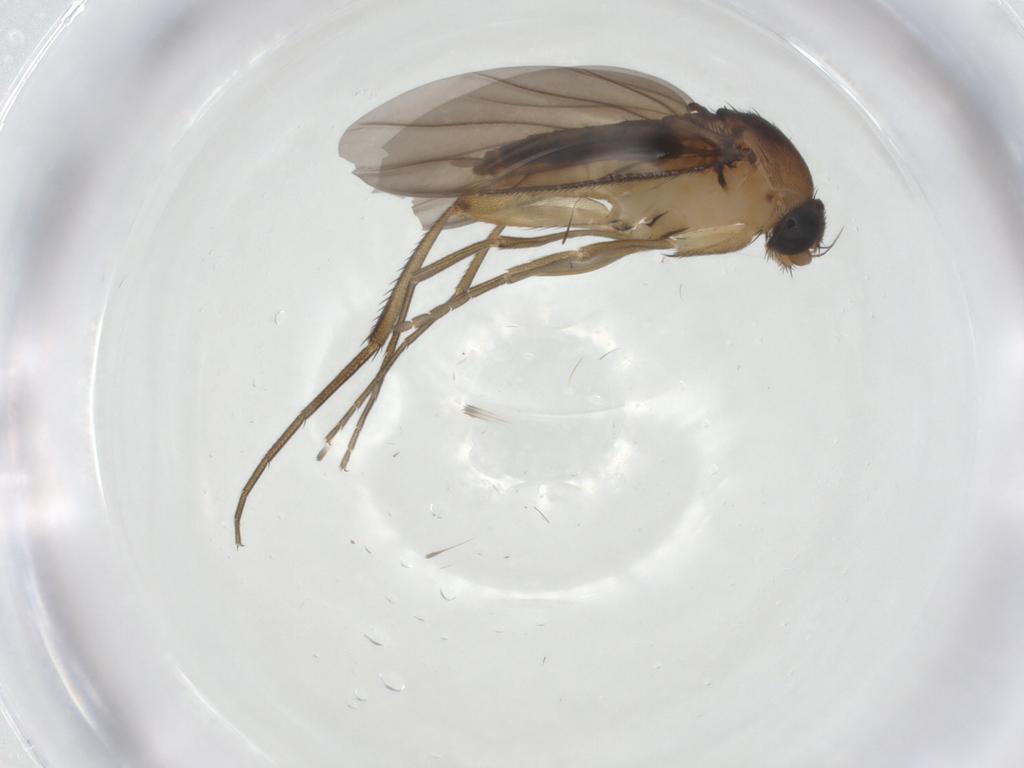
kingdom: Animalia
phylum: Arthropoda
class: Insecta
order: Diptera
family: Phoridae
